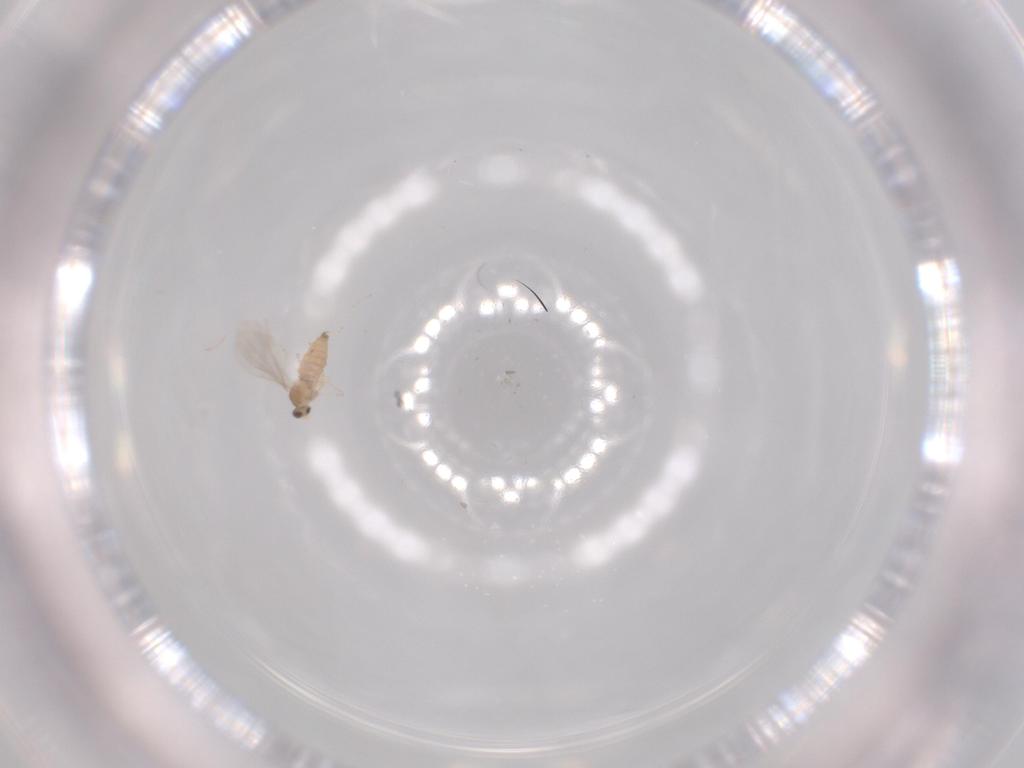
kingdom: Animalia
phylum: Arthropoda
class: Insecta
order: Diptera
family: Cecidomyiidae
